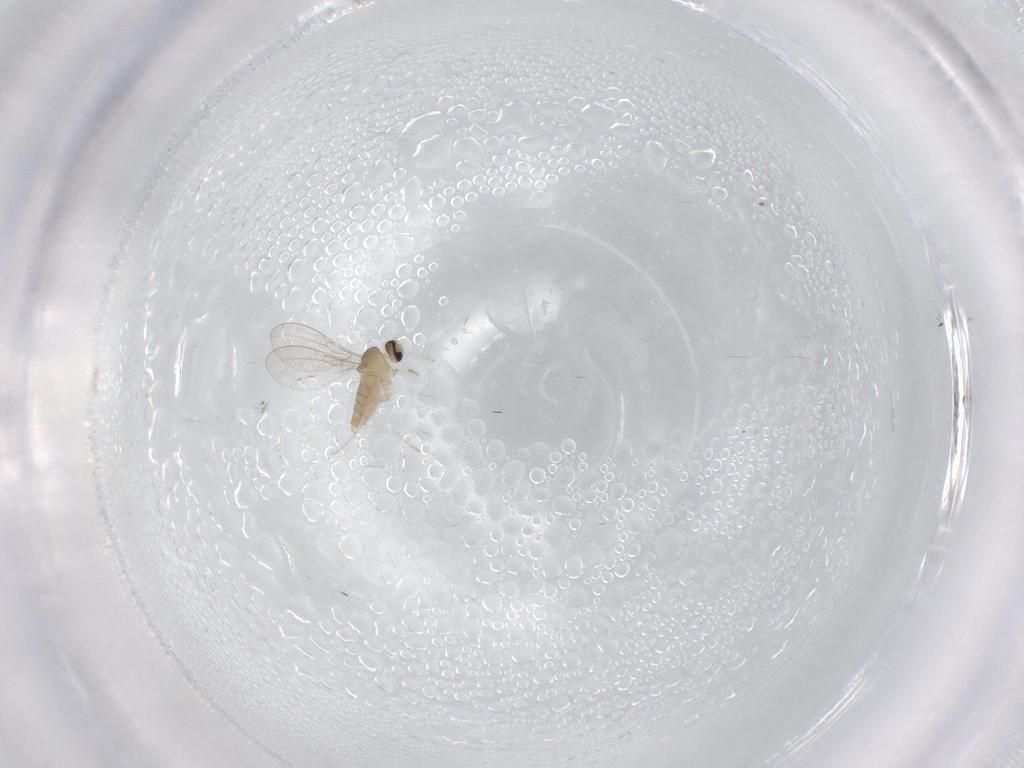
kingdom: Animalia
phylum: Arthropoda
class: Insecta
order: Diptera
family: Cecidomyiidae
